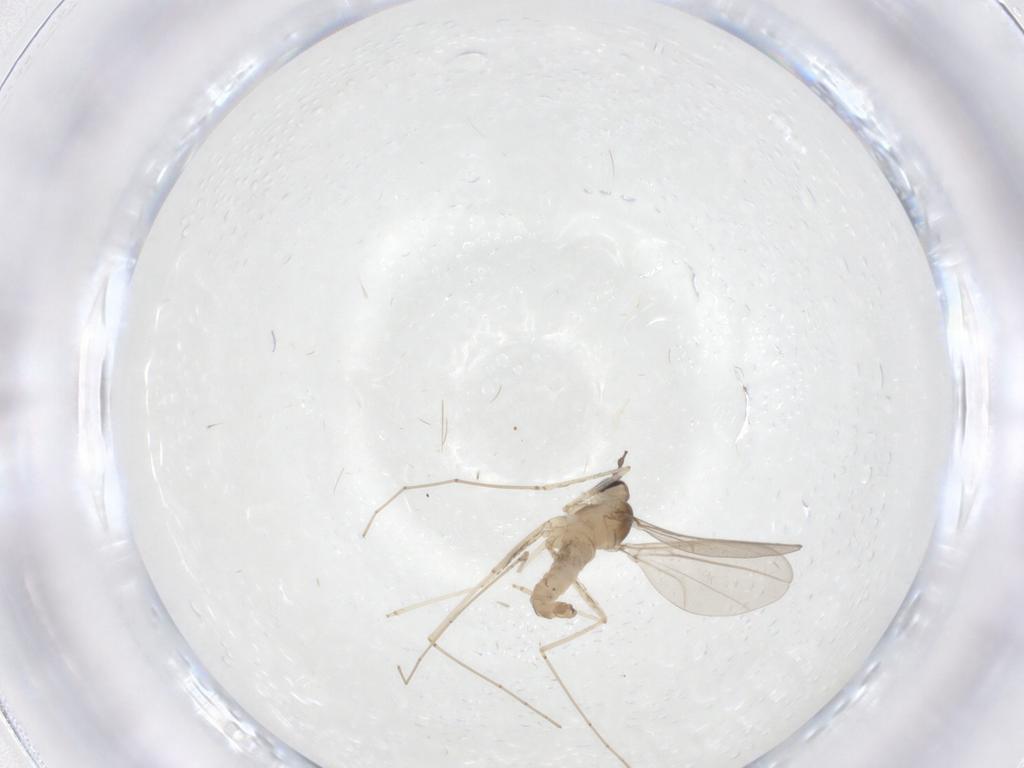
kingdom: Animalia
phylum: Arthropoda
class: Insecta
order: Diptera
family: Cecidomyiidae
